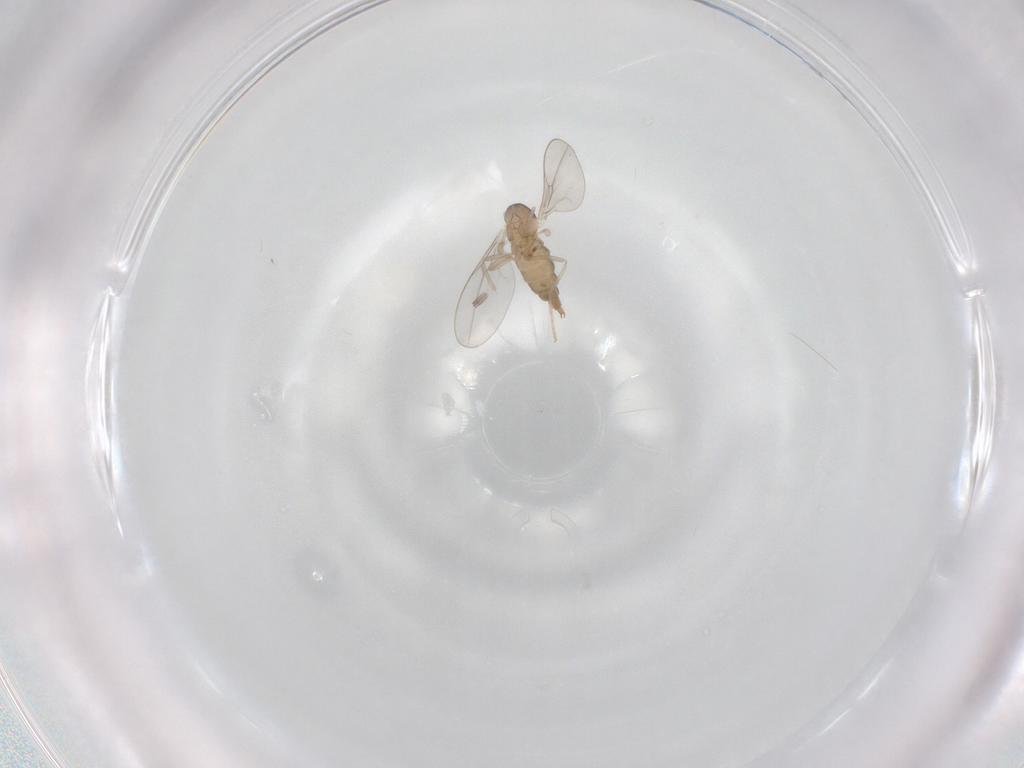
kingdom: Animalia
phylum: Arthropoda
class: Insecta
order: Diptera
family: Cecidomyiidae
